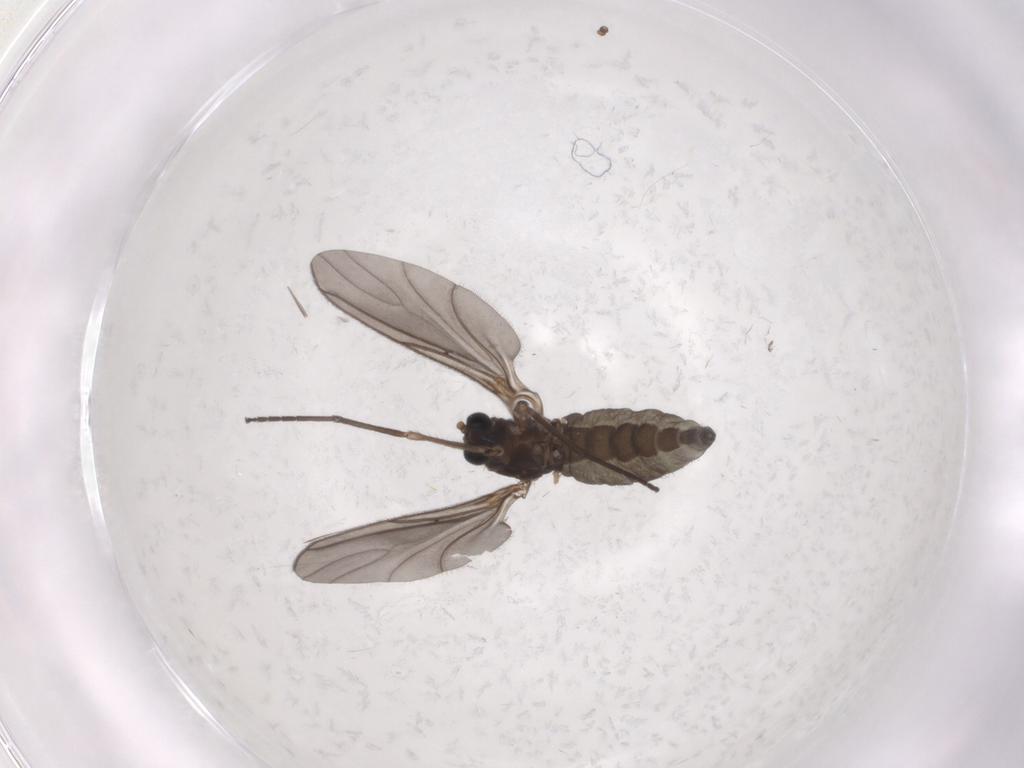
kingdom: Animalia
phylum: Arthropoda
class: Insecta
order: Diptera
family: Sciaridae
